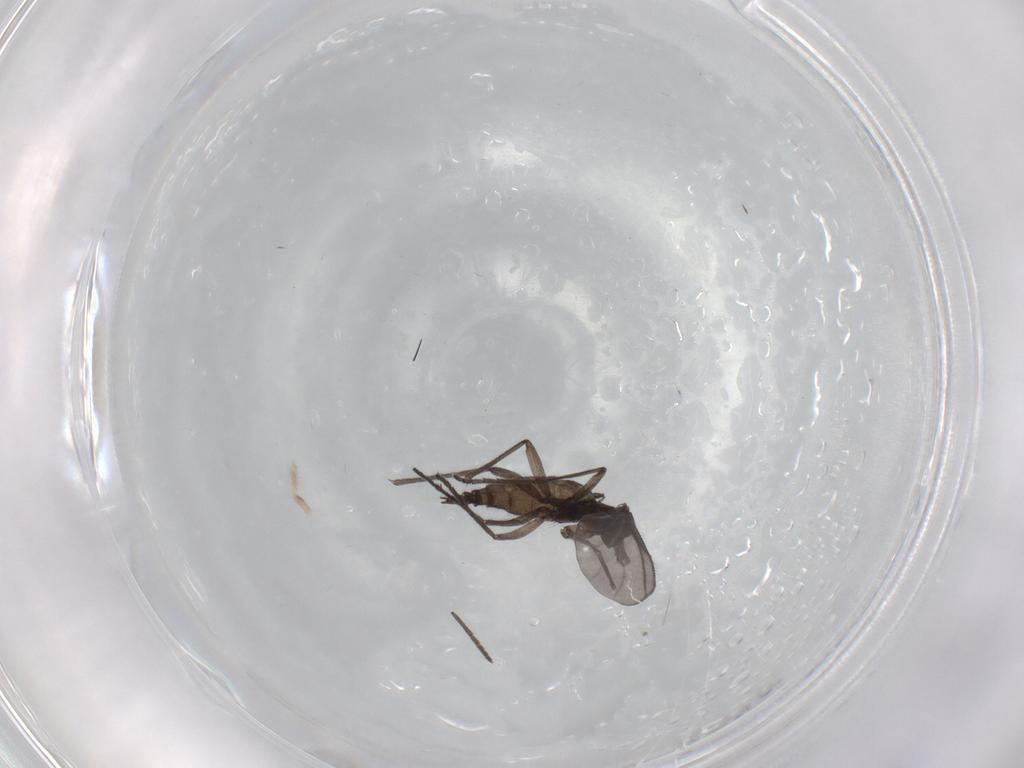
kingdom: Animalia
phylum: Arthropoda
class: Insecta
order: Diptera
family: Sciaridae
